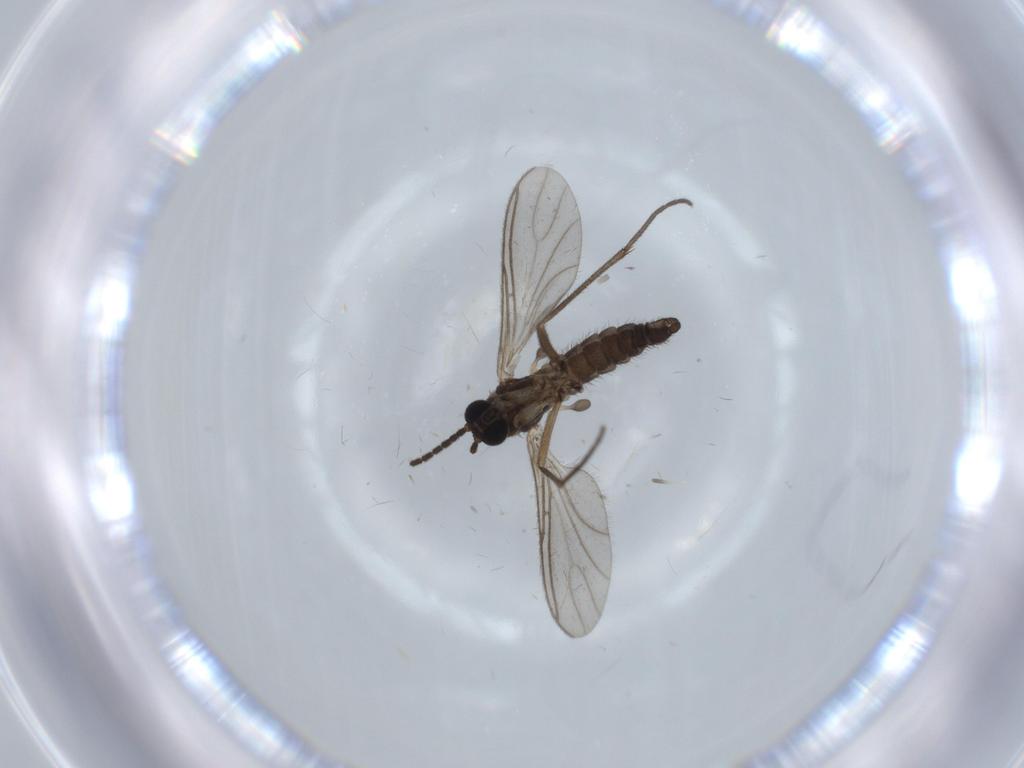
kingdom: Animalia
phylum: Arthropoda
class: Insecta
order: Diptera
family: Sciaridae
